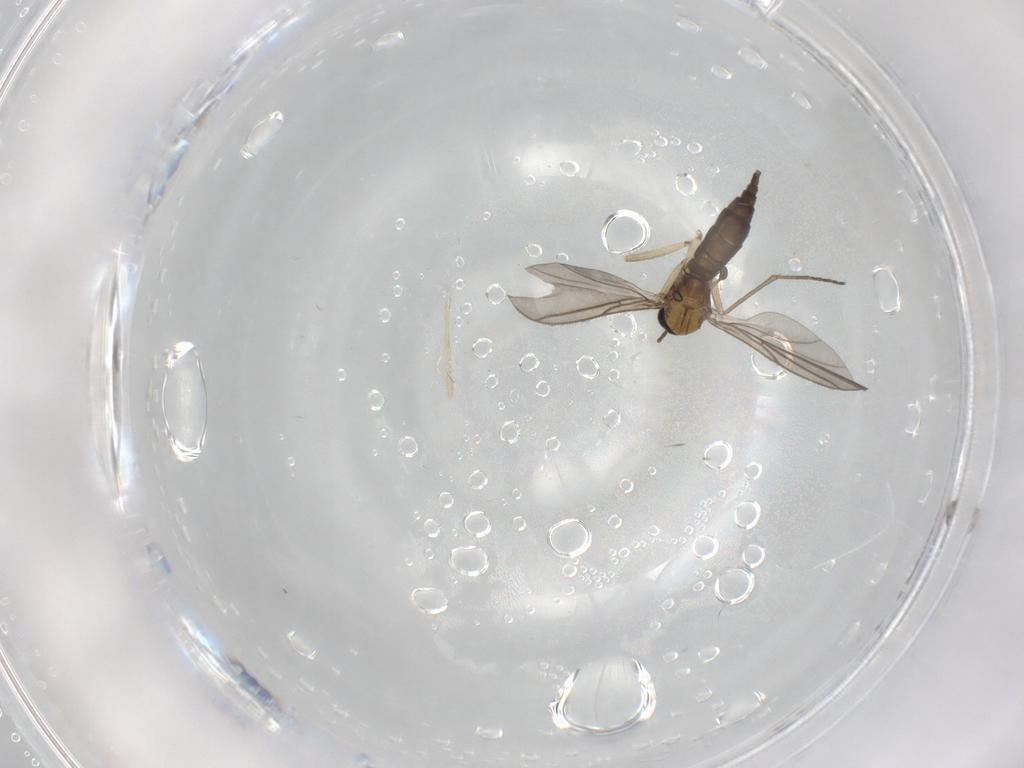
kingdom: Animalia
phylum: Arthropoda
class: Insecta
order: Diptera
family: Sciaridae
